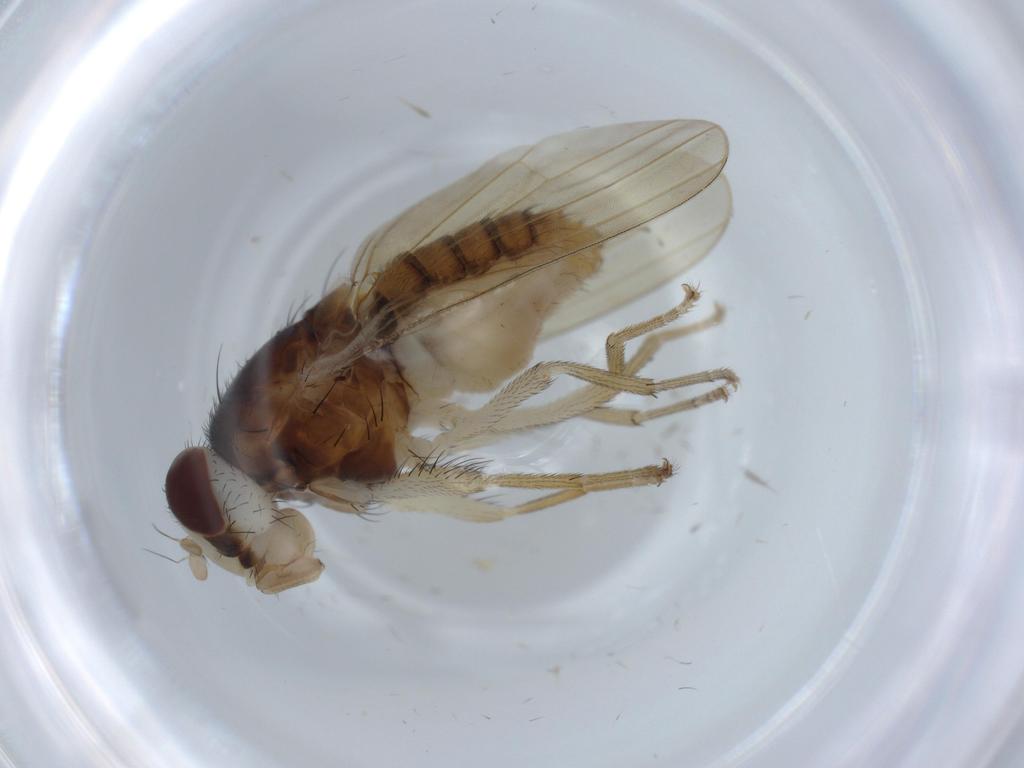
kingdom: Animalia
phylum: Arthropoda
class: Insecta
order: Diptera
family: Lauxaniidae
